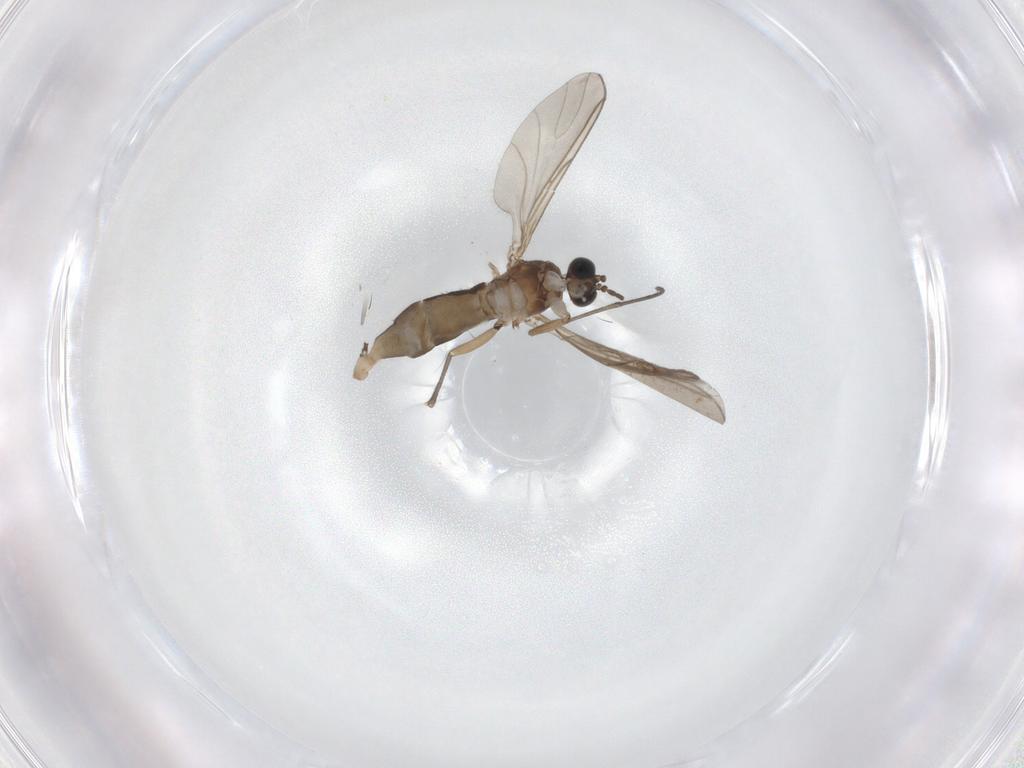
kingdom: Animalia
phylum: Arthropoda
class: Insecta
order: Diptera
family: Sciaridae
